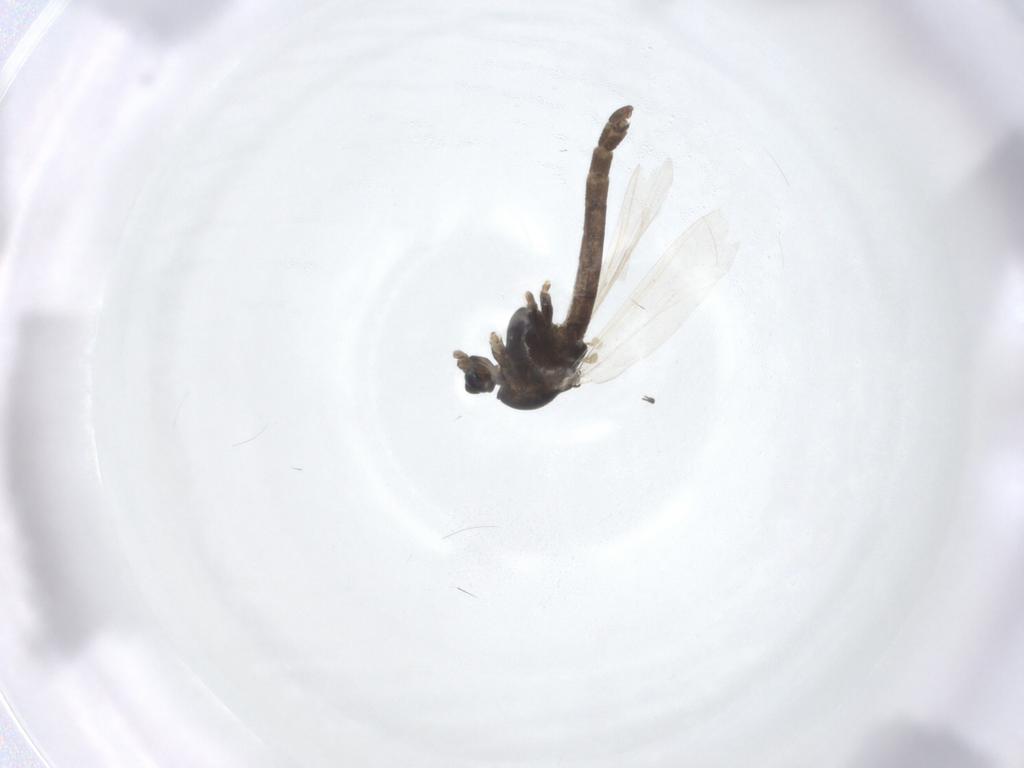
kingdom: Animalia
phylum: Arthropoda
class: Insecta
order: Diptera
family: Chironomidae
